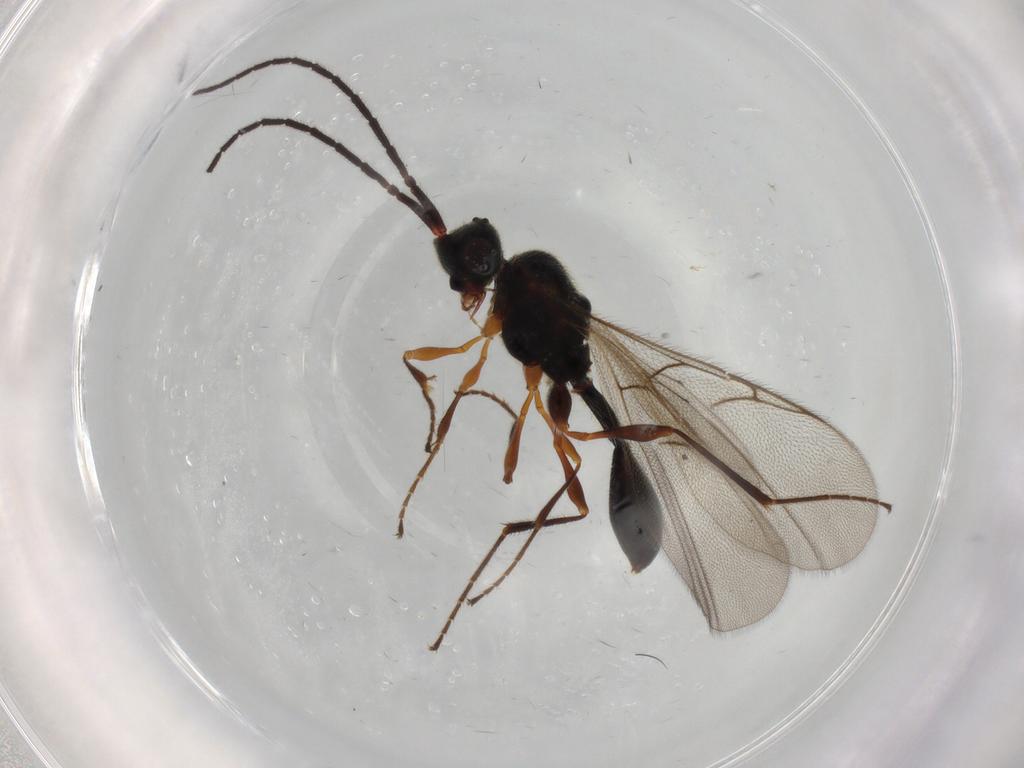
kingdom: Animalia
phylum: Arthropoda
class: Insecta
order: Hymenoptera
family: Diapriidae
